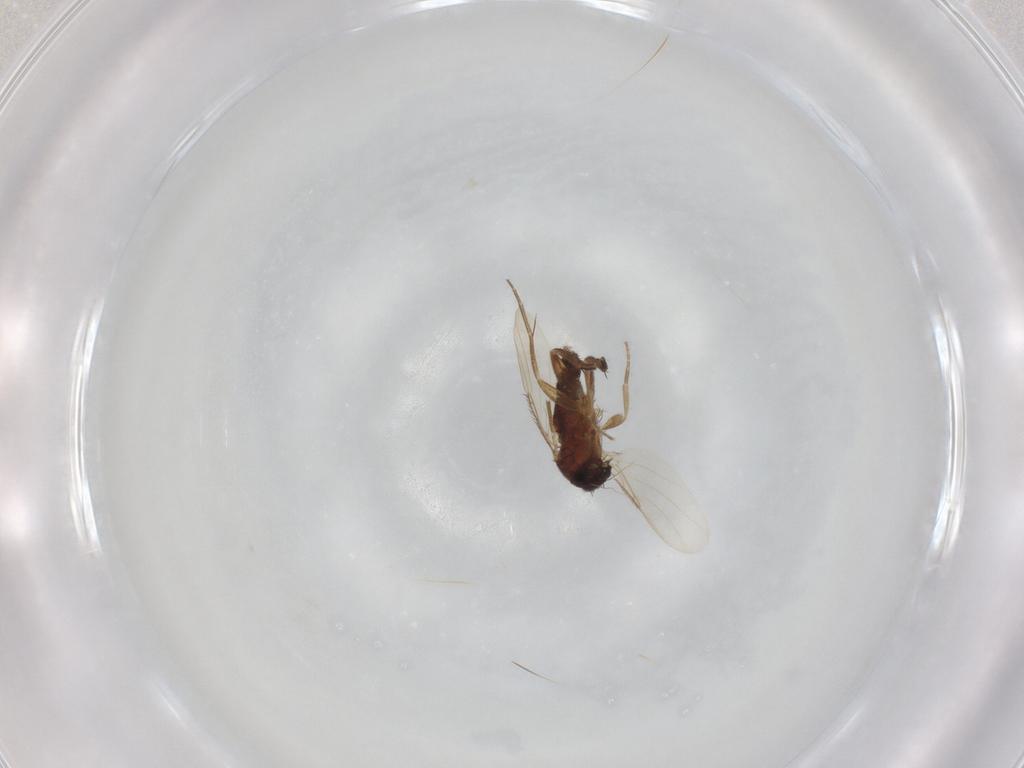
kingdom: Animalia
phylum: Arthropoda
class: Insecta
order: Diptera
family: Phoridae
